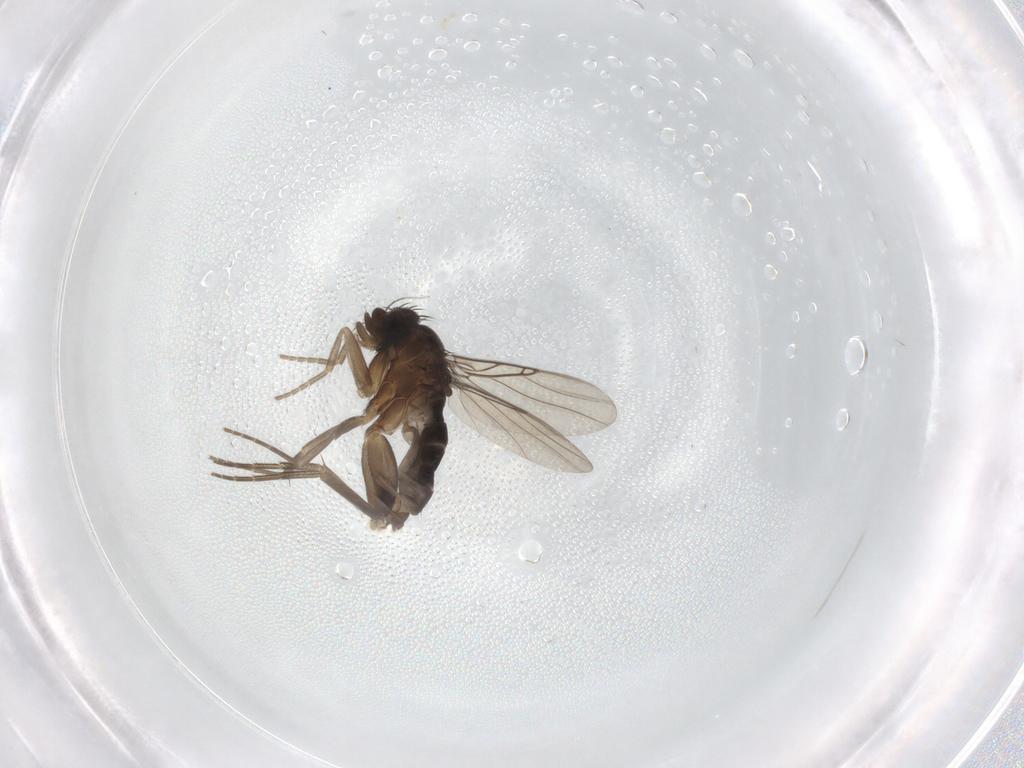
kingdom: Animalia
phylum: Arthropoda
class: Insecta
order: Diptera
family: Phoridae
